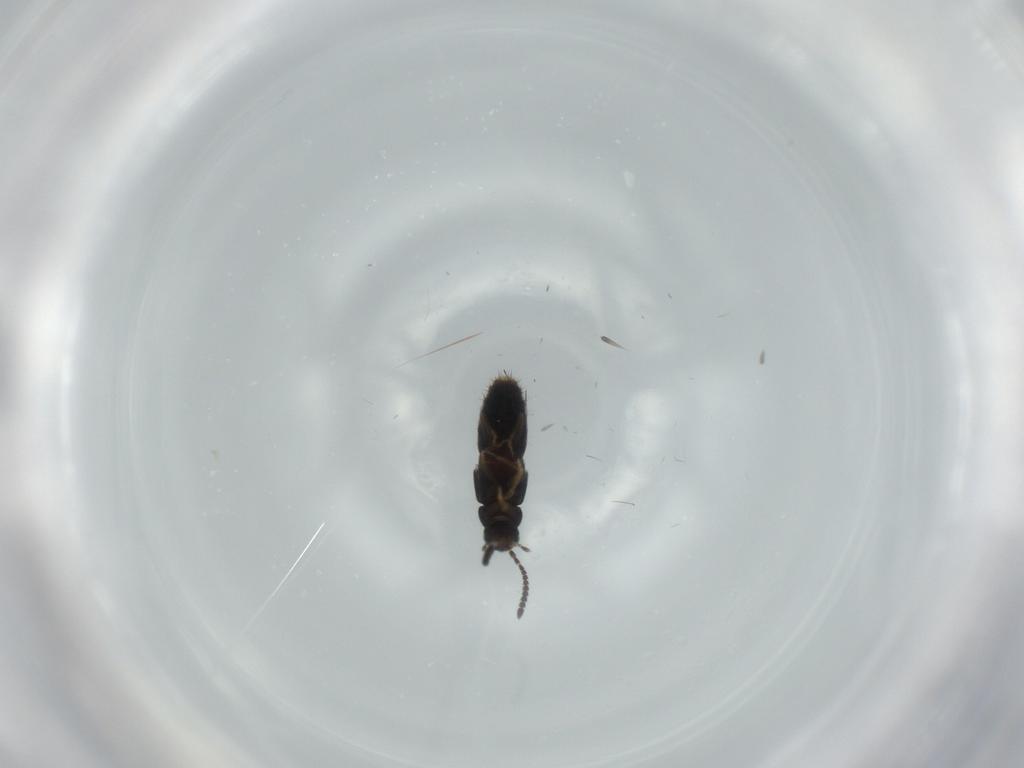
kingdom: Animalia
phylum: Arthropoda
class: Insecta
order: Coleoptera
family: Staphylinidae
